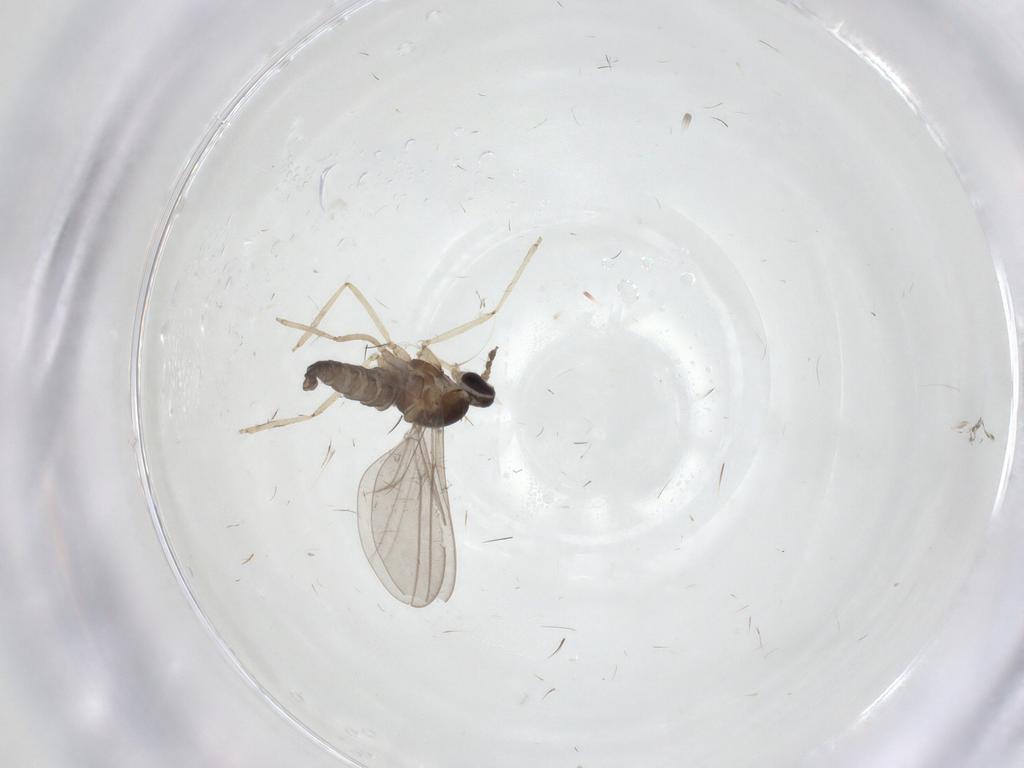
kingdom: Animalia
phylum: Arthropoda
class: Insecta
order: Diptera
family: Cecidomyiidae
